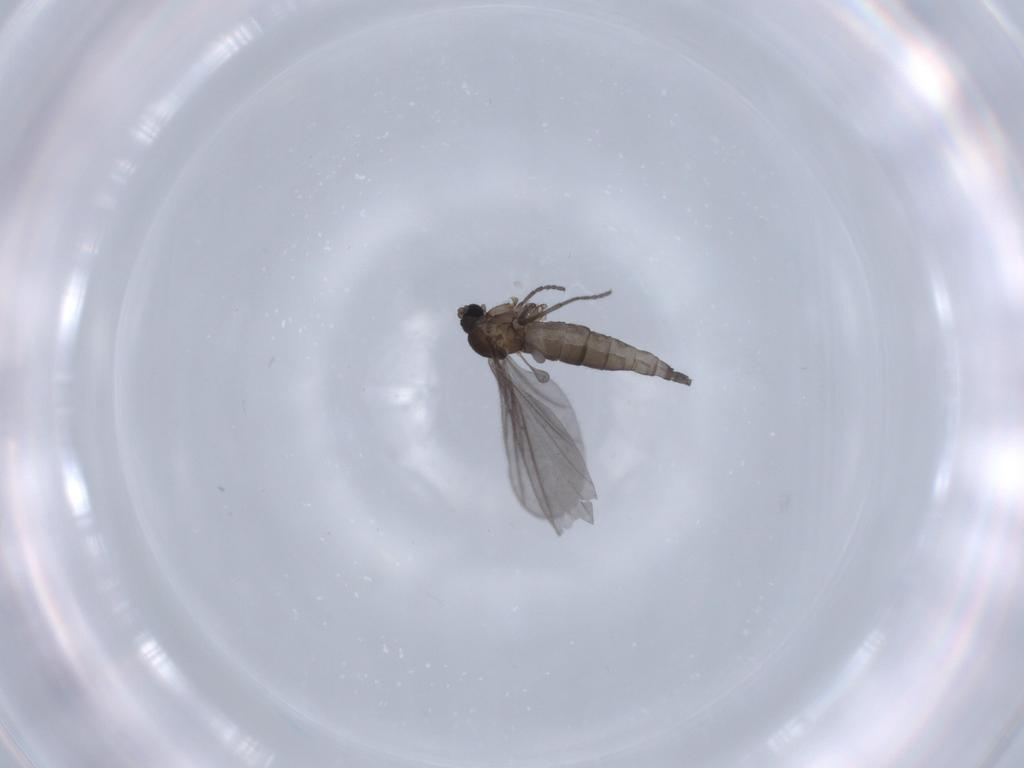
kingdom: Animalia
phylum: Arthropoda
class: Insecta
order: Diptera
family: Sciaridae
